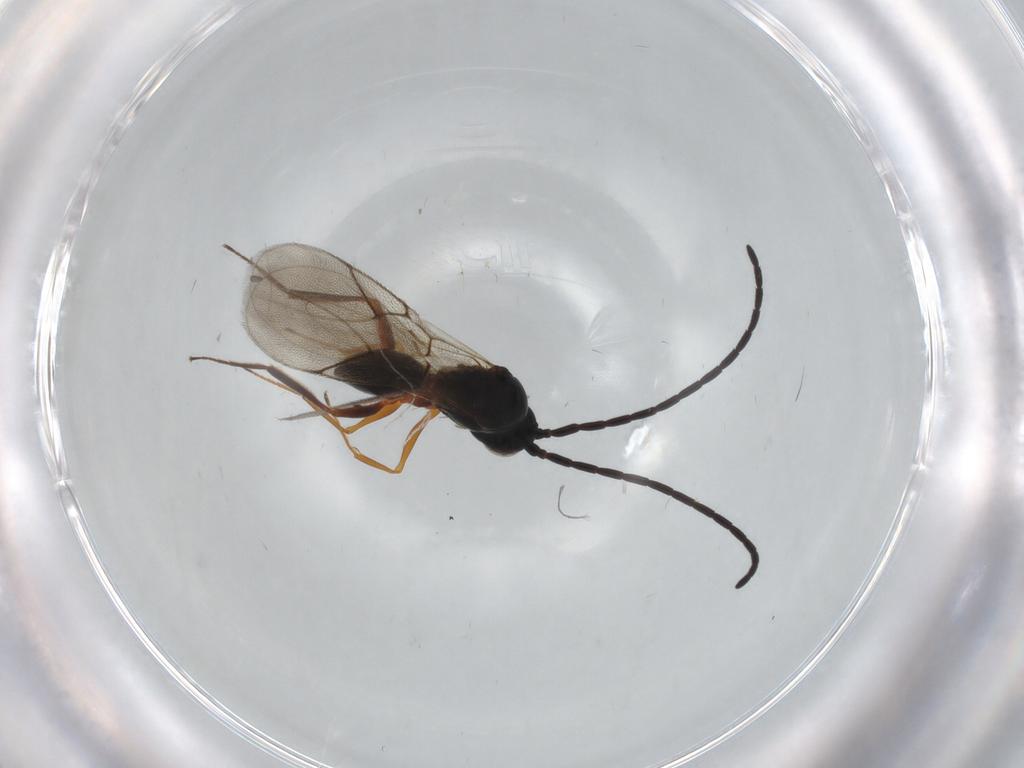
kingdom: Animalia
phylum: Arthropoda
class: Insecta
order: Hymenoptera
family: Figitidae
